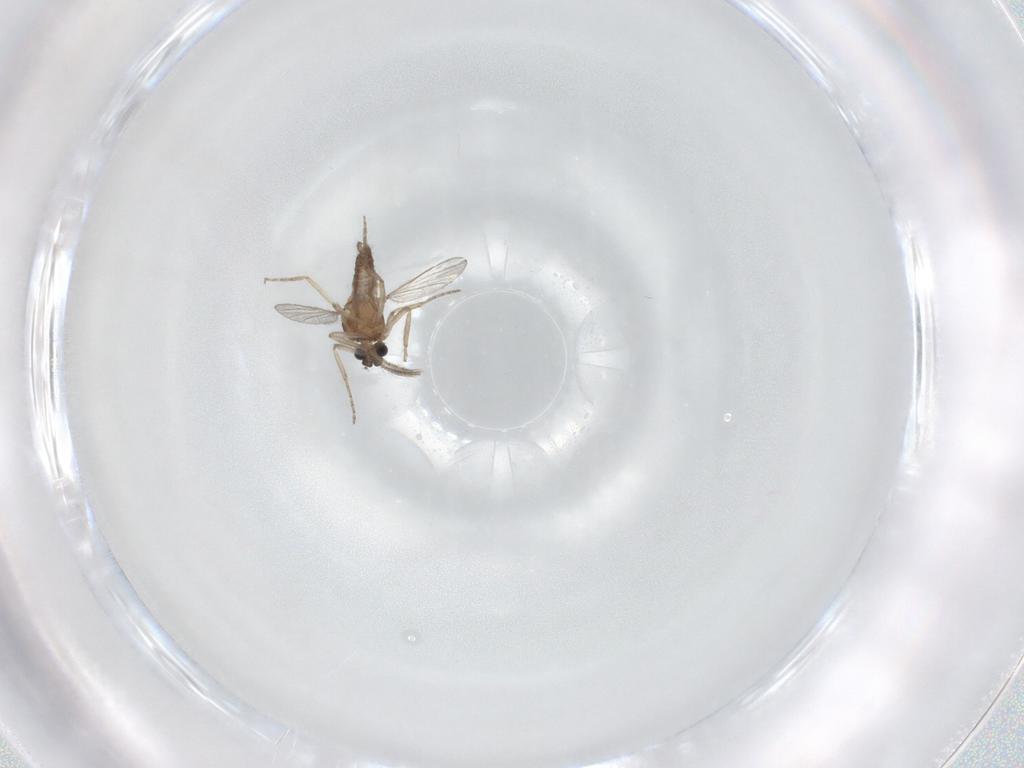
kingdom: Animalia
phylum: Arthropoda
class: Insecta
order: Diptera
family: Phoridae
